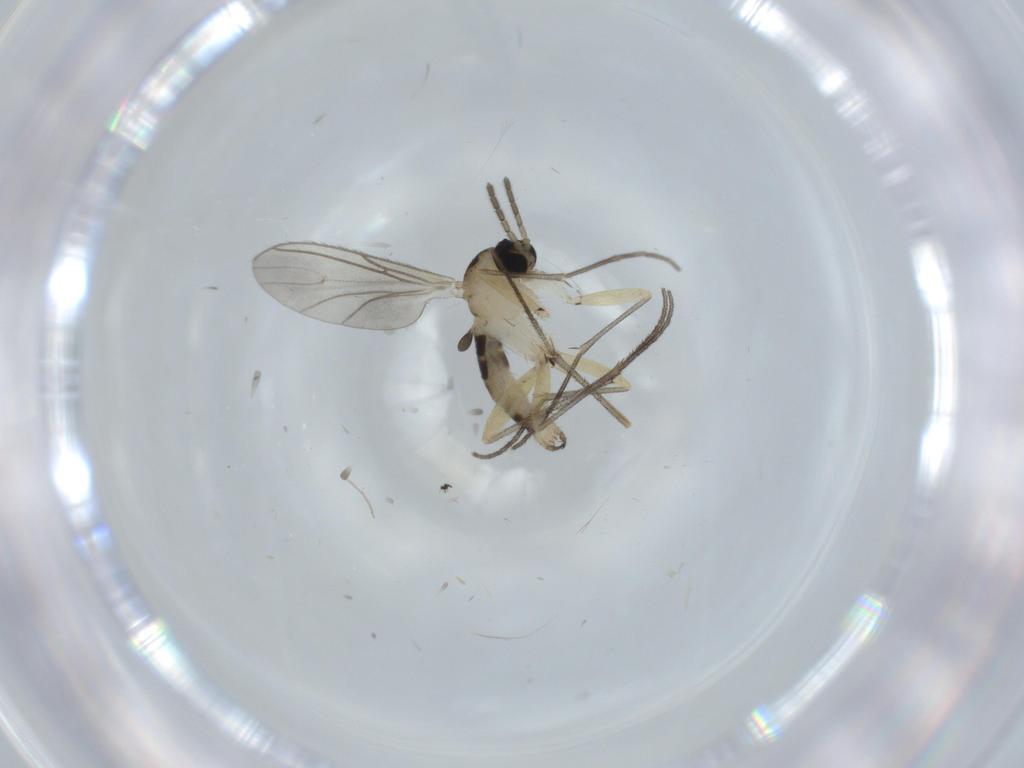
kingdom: Animalia
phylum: Arthropoda
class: Insecta
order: Diptera
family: Sciaridae
